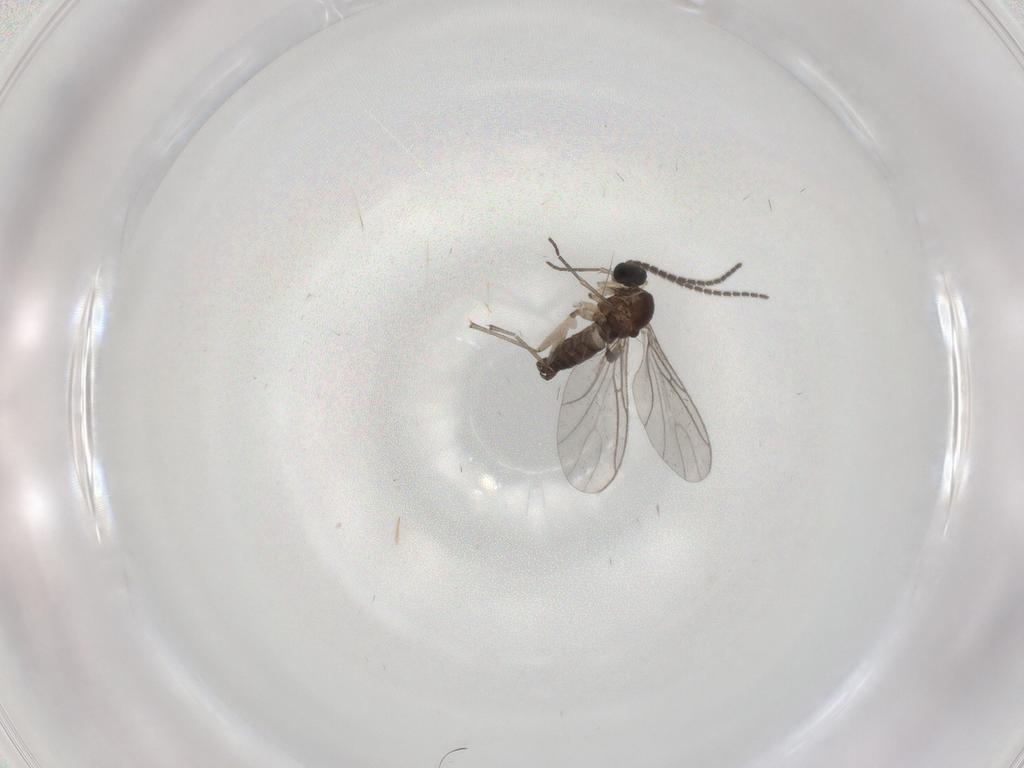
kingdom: Animalia
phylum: Arthropoda
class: Insecta
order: Diptera
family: Sciaridae
